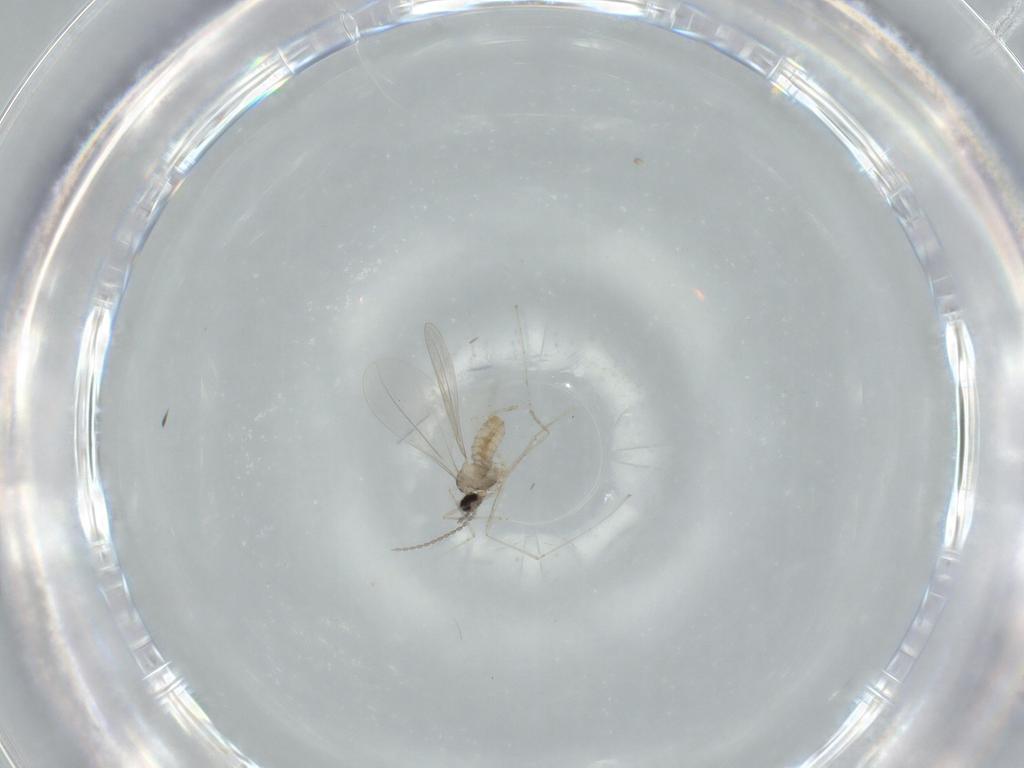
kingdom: Animalia
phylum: Arthropoda
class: Insecta
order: Diptera
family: Cecidomyiidae
